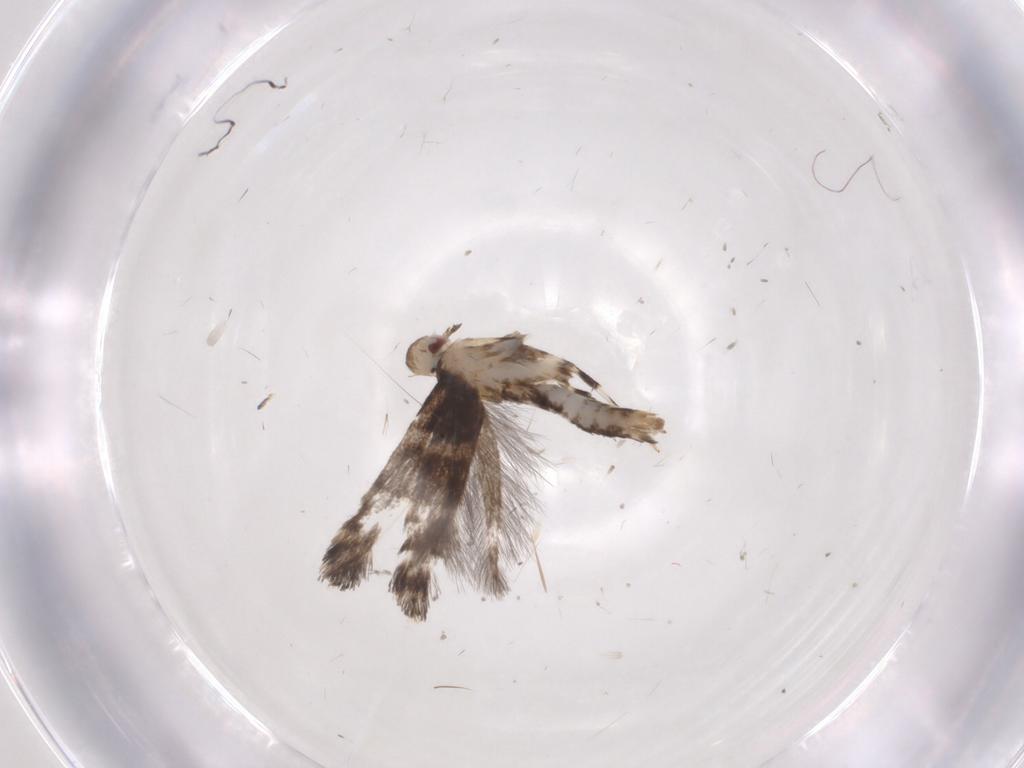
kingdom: Animalia
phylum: Arthropoda
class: Insecta
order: Lepidoptera
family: Gracillariidae
